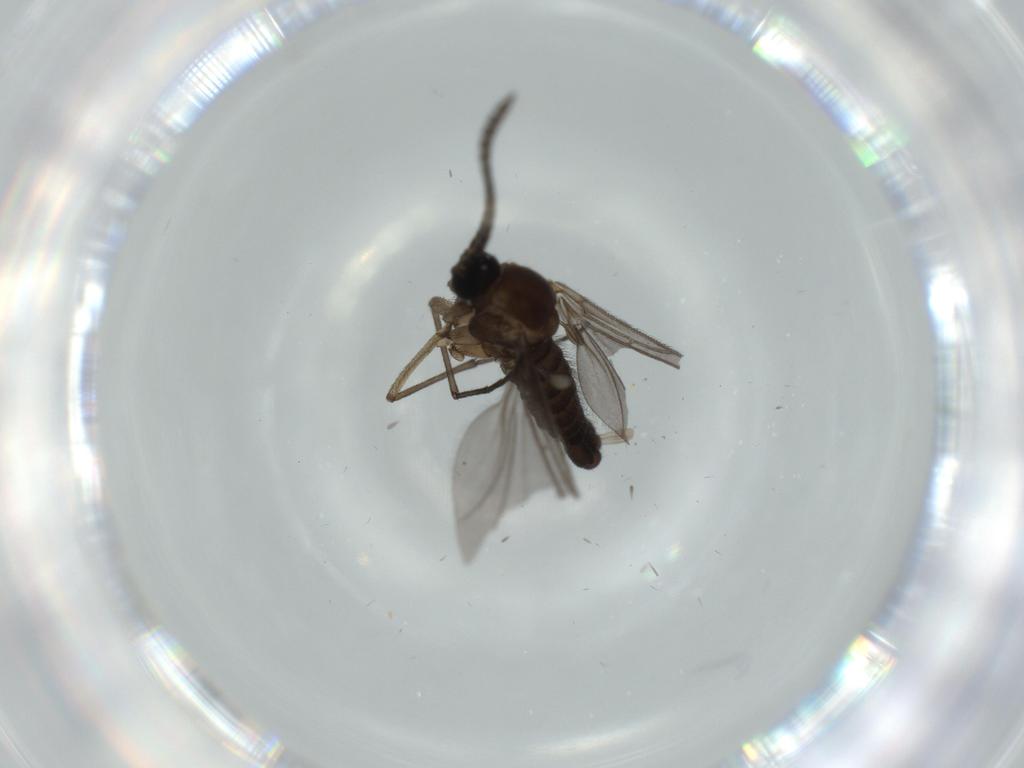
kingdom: Animalia
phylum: Arthropoda
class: Insecta
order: Diptera
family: Sciaridae
